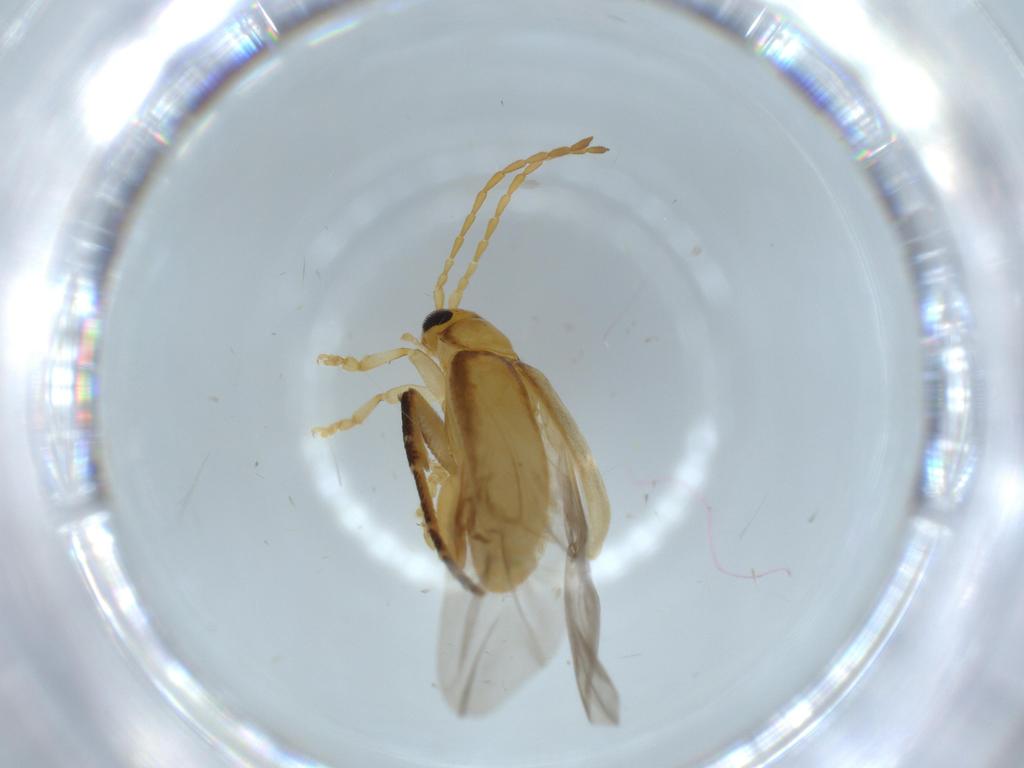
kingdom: Animalia
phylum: Arthropoda
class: Insecta
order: Coleoptera
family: Chrysomelidae
